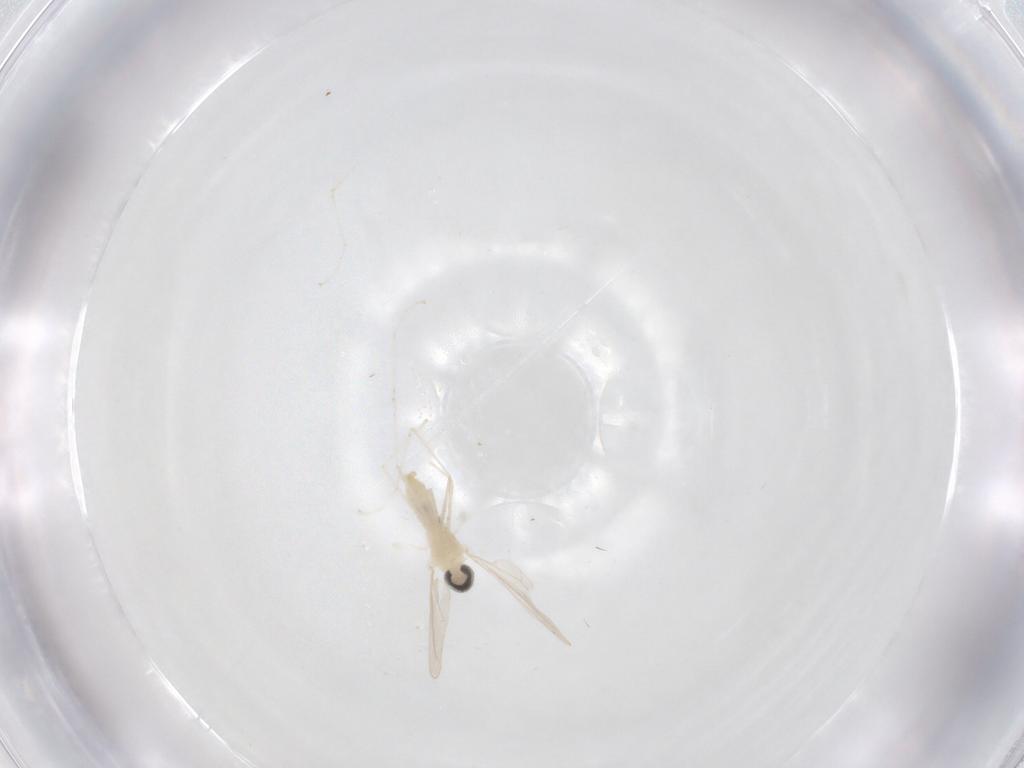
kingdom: Animalia
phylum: Arthropoda
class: Insecta
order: Diptera
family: Cecidomyiidae
